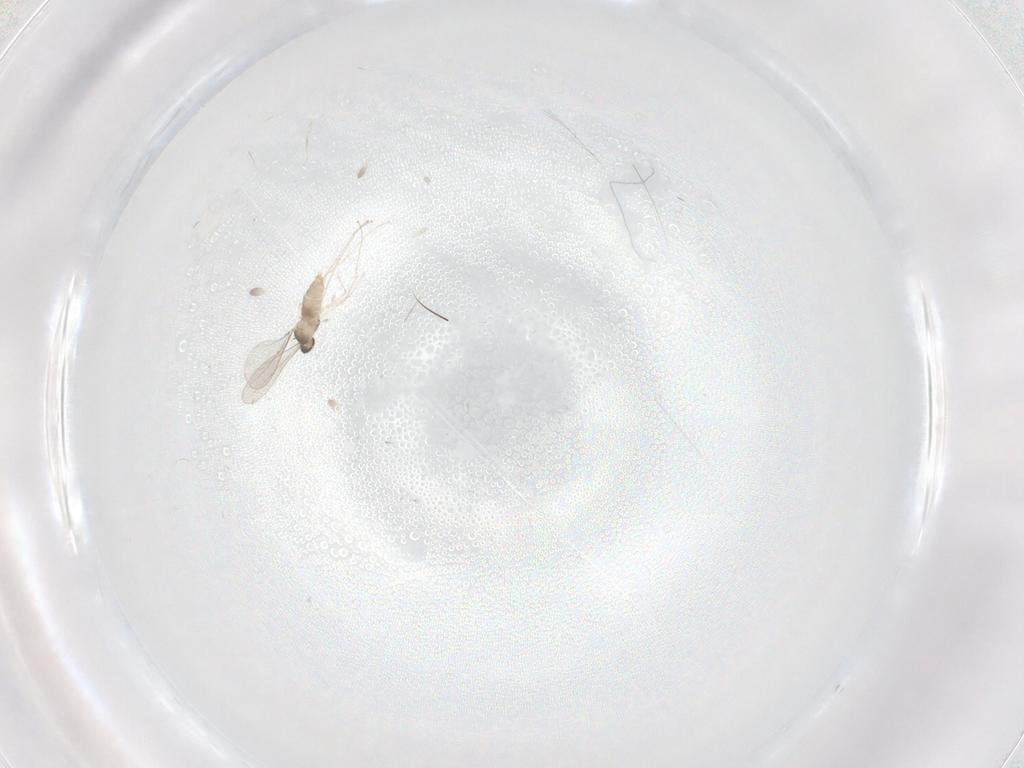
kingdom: Animalia
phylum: Arthropoda
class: Insecta
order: Diptera
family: Cecidomyiidae
